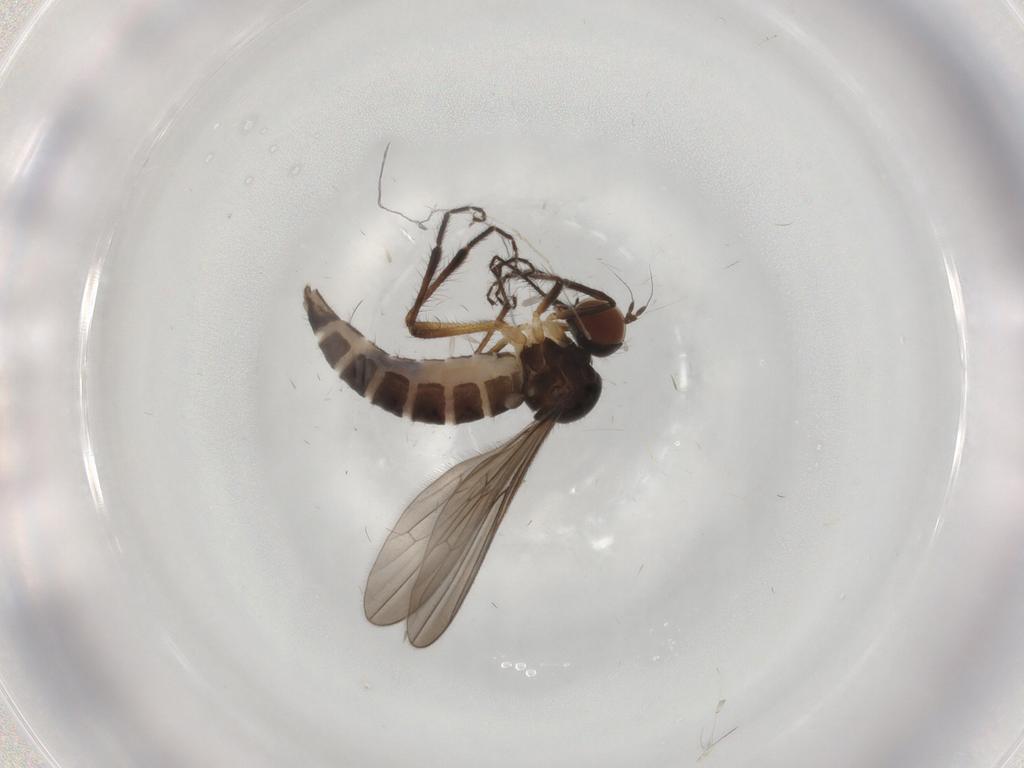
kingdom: Animalia
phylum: Arthropoda
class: Insecta
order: Diptera
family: Hybotidae
